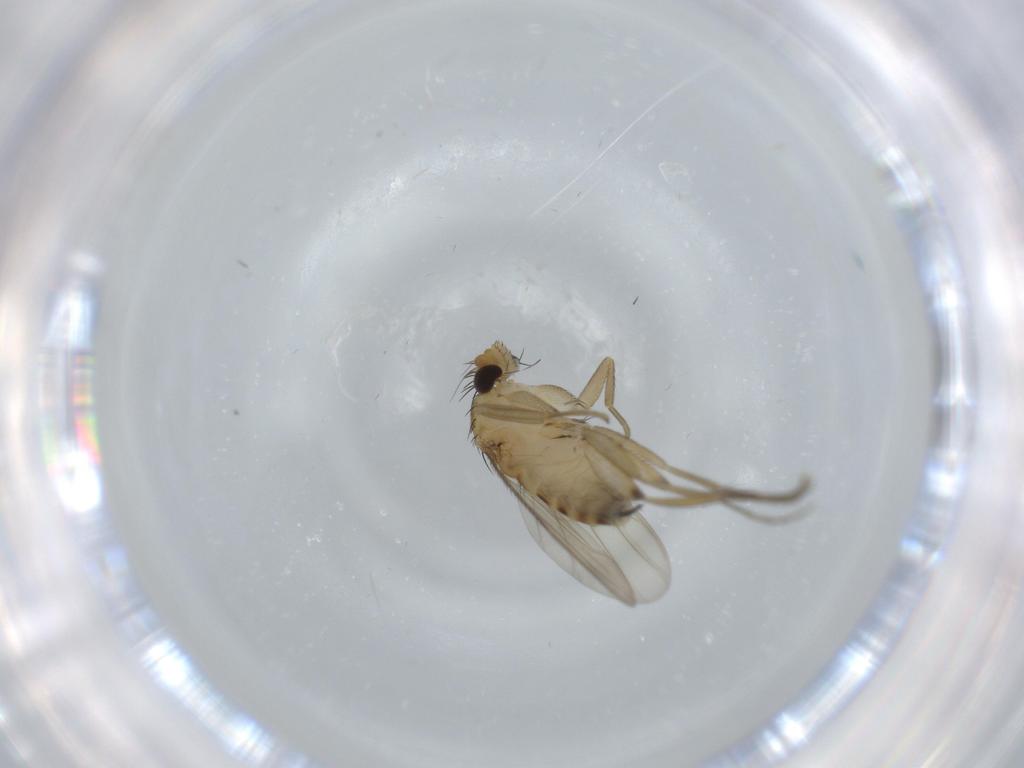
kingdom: Animalia
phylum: Arthropoda
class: Insecta
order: Diptera
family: Phoridae
